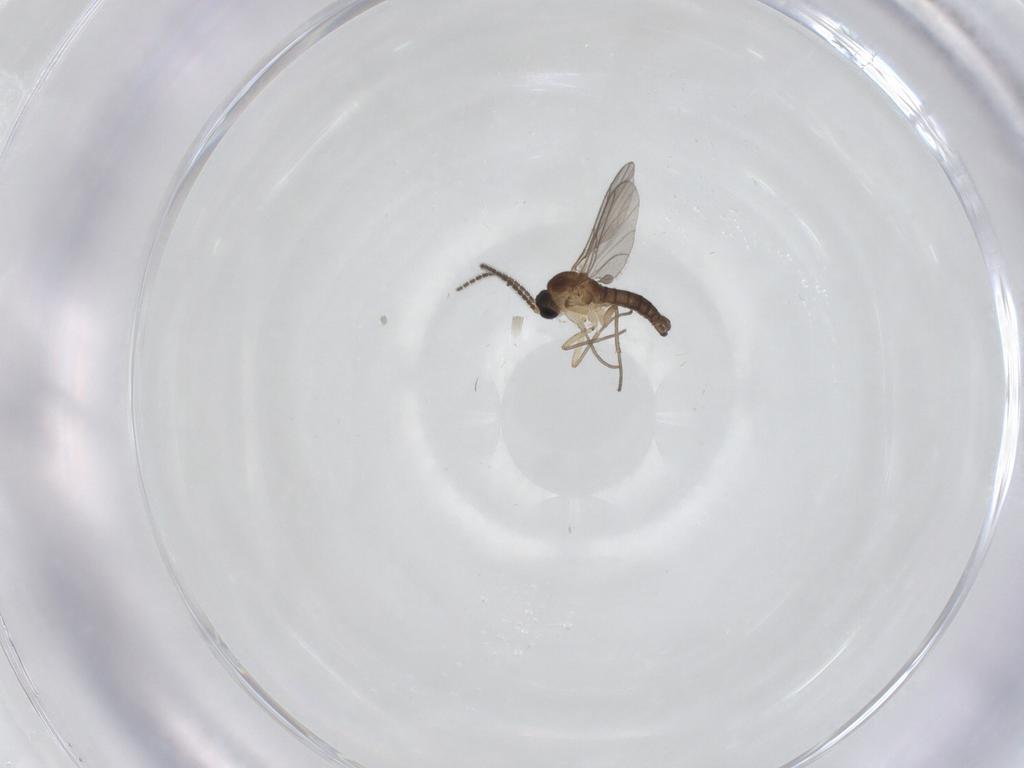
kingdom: Animalia
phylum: Arthropoda
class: Insecta
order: Diptera
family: Sciaridae
